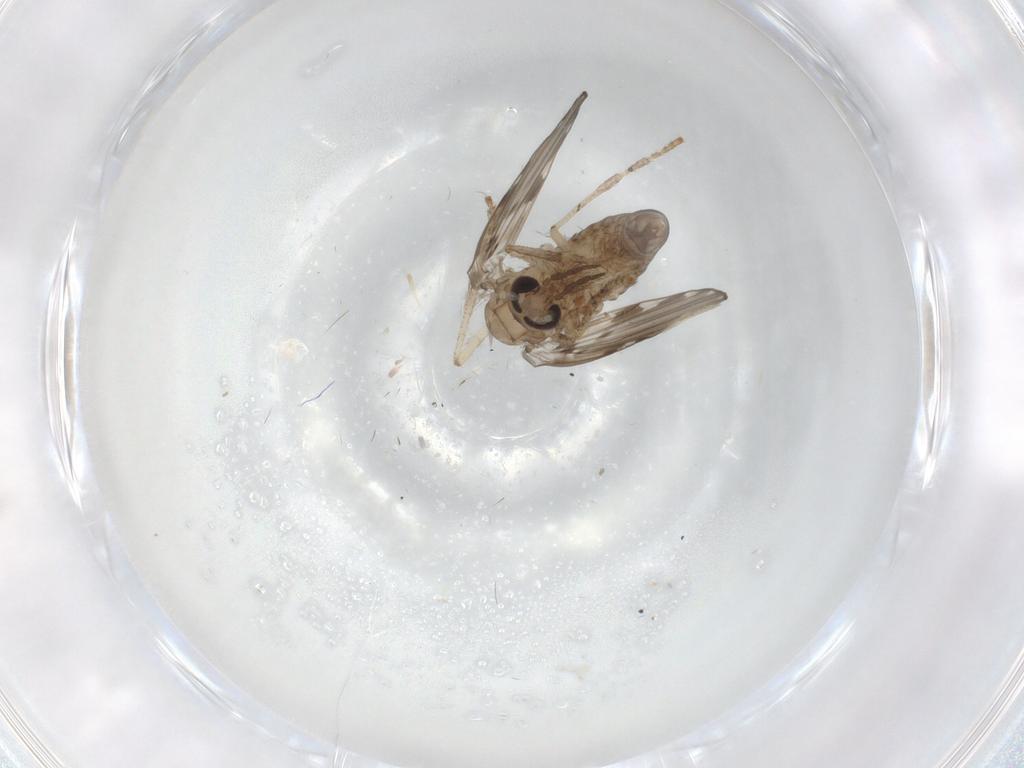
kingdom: Animalia
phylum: Arthropoda
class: Insecta
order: Diptera
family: Psychodidae
